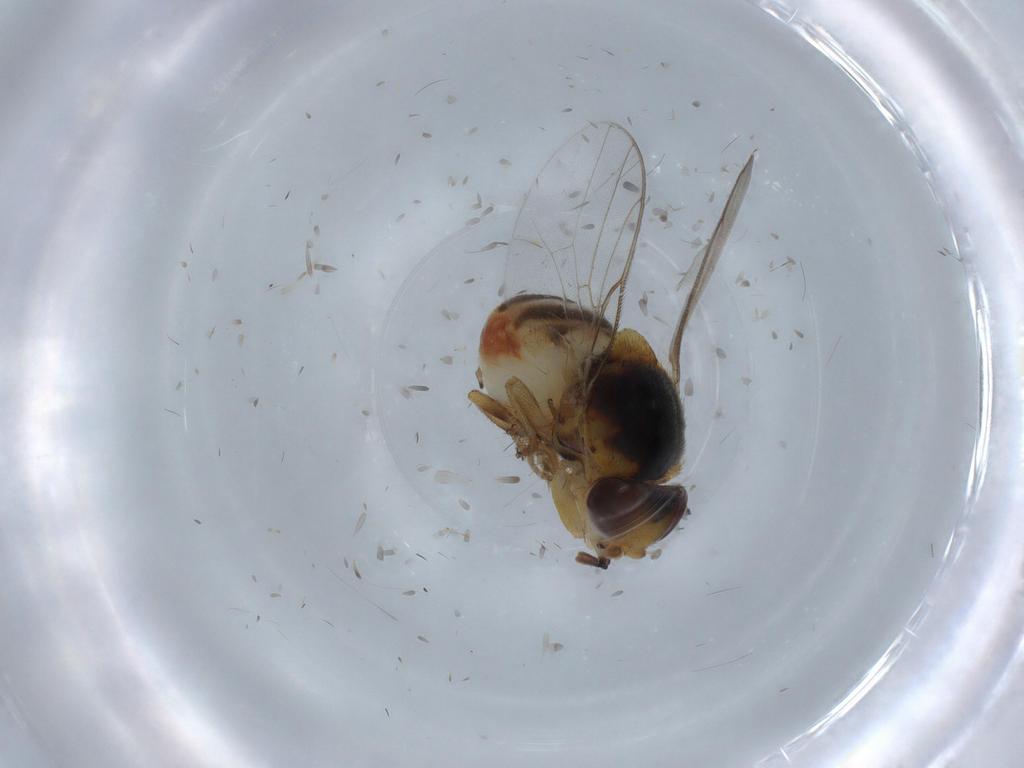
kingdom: Animalia
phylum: Arthropoda
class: Insecta
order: Diptera
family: Chloropidae
